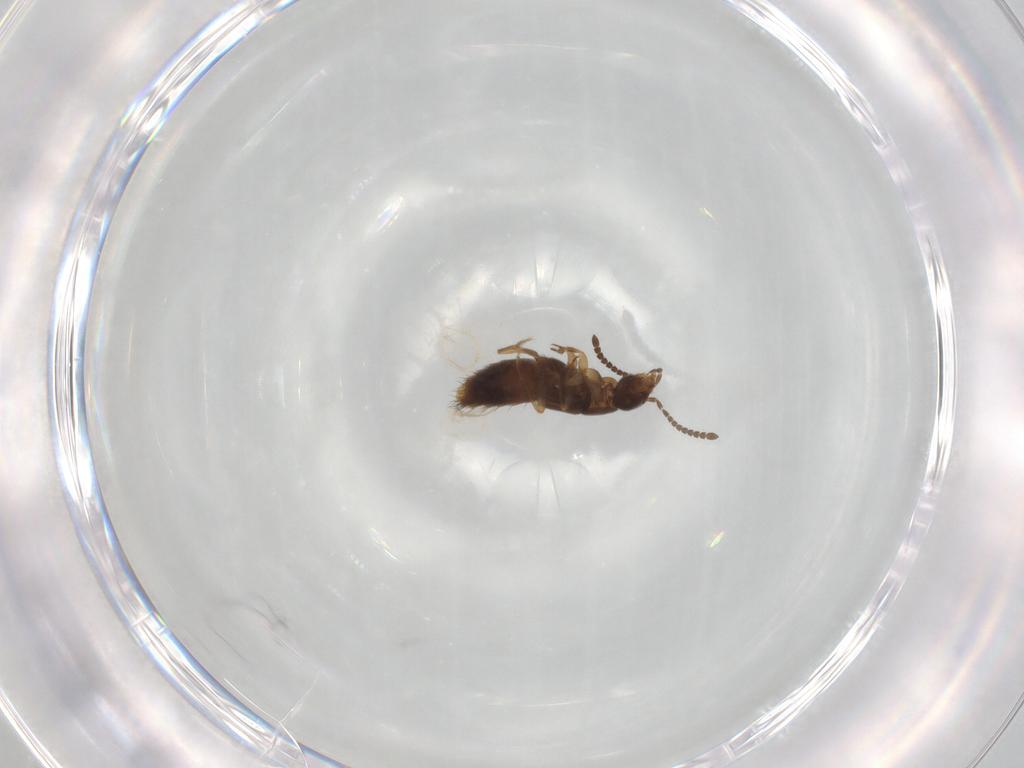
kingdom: Animalia
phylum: Arthropoda
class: Insecta
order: Coleoptera
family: Staphylinidae
